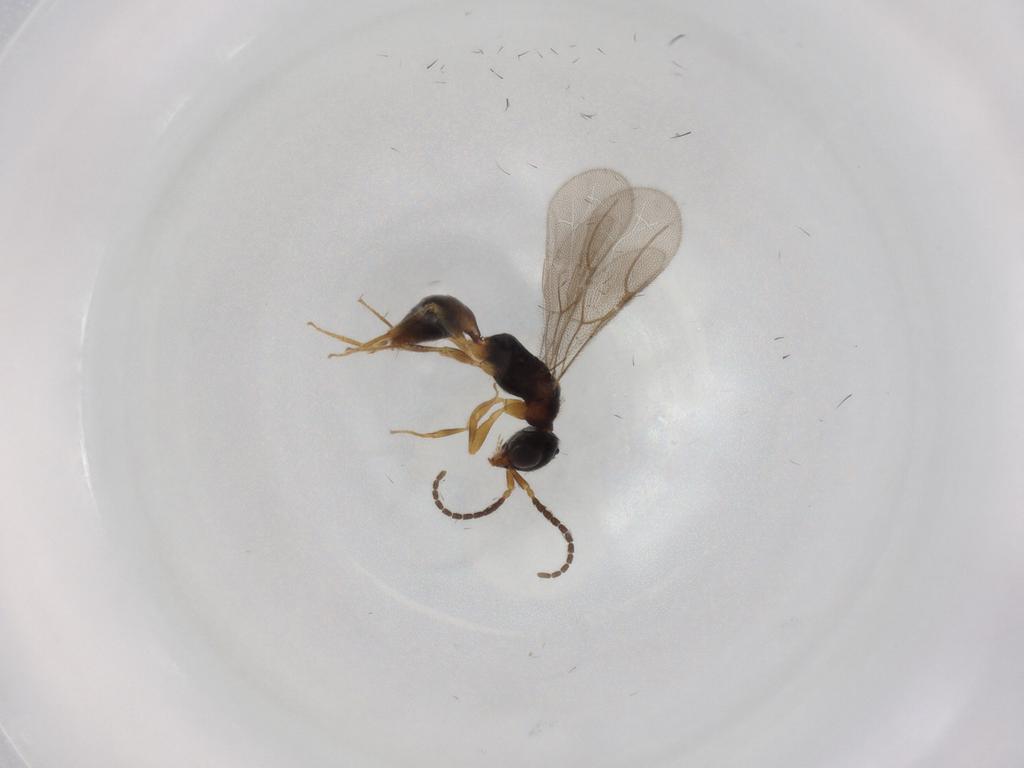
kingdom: Animalia
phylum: Arthropoda
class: Insecta
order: Hymenoptera
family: Bethylidae
